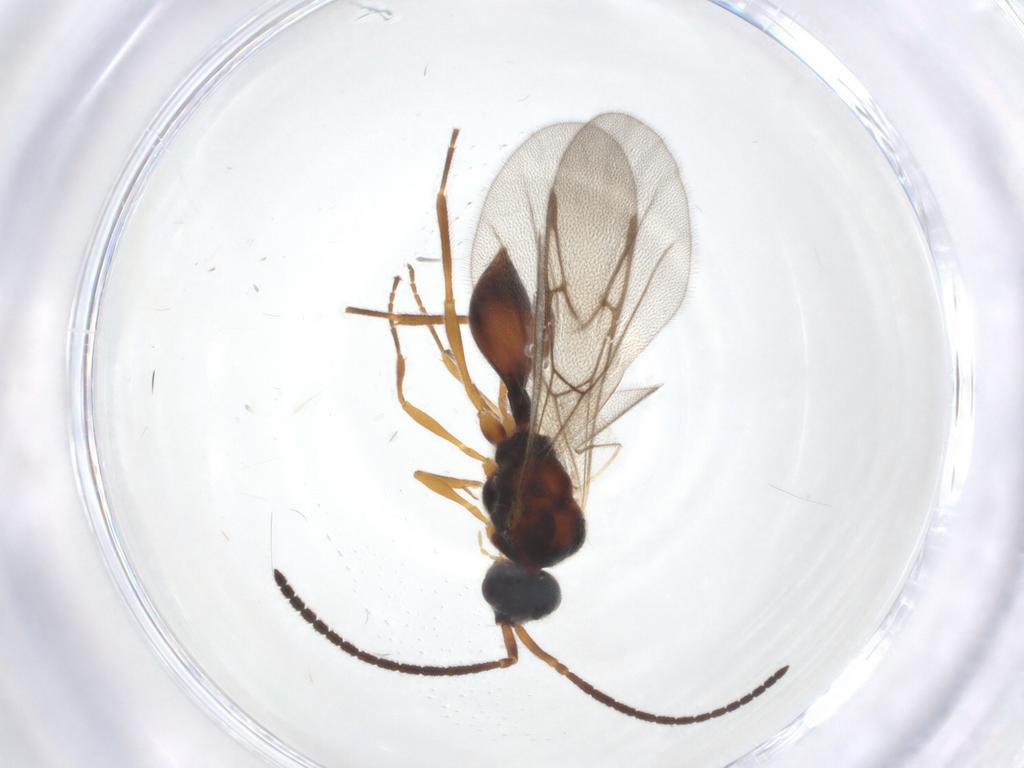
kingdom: Animalia
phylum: Arthropoda
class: Insecta
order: Hymenoptera
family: Diapriidae
